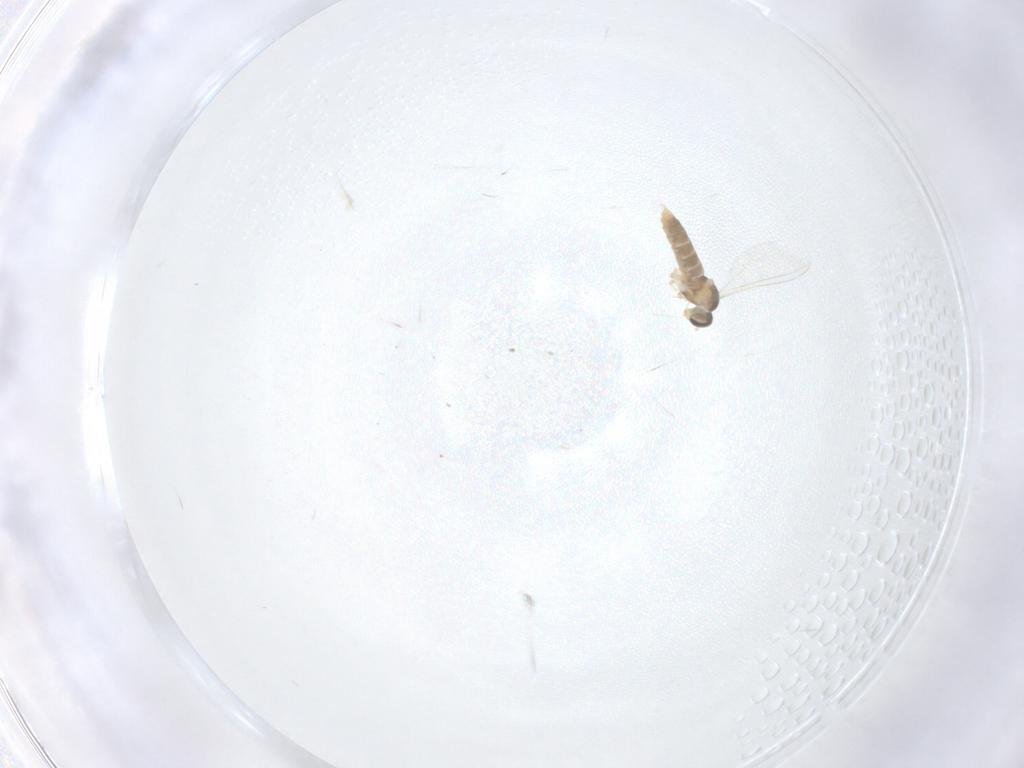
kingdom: Animalia
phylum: Arthropoda
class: Insecta
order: Diptera
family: Cecidomyiidae
